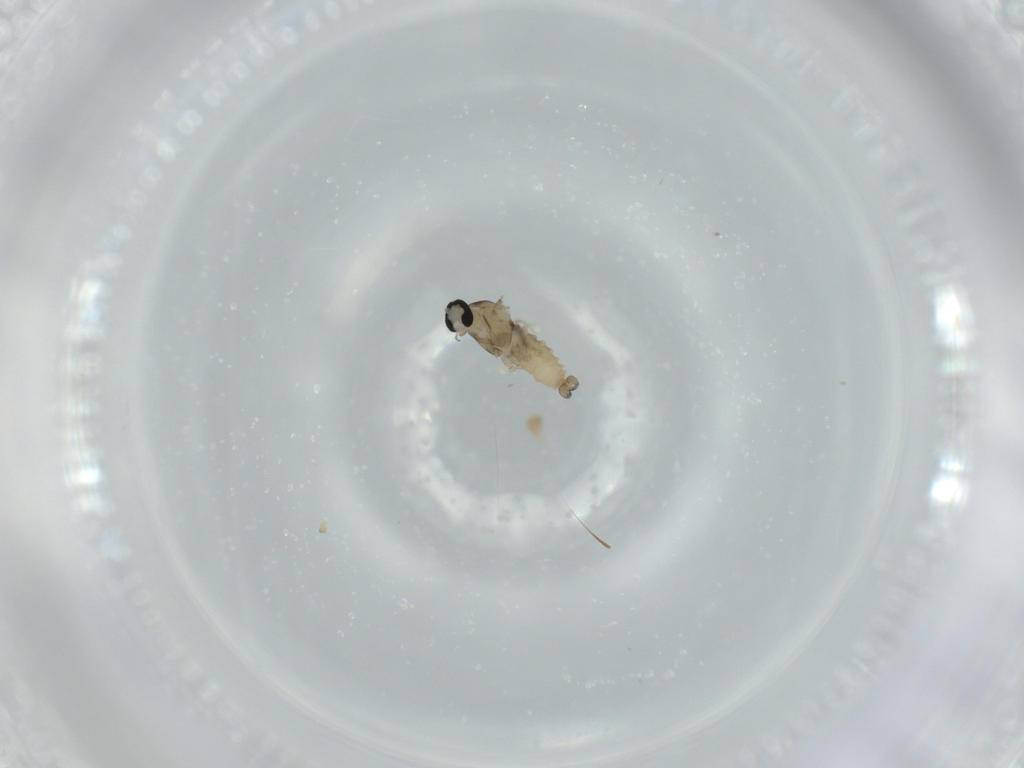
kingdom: Animalia
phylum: Arthropoda
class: Insecta
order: Diptera
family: Cecidomyiidae
